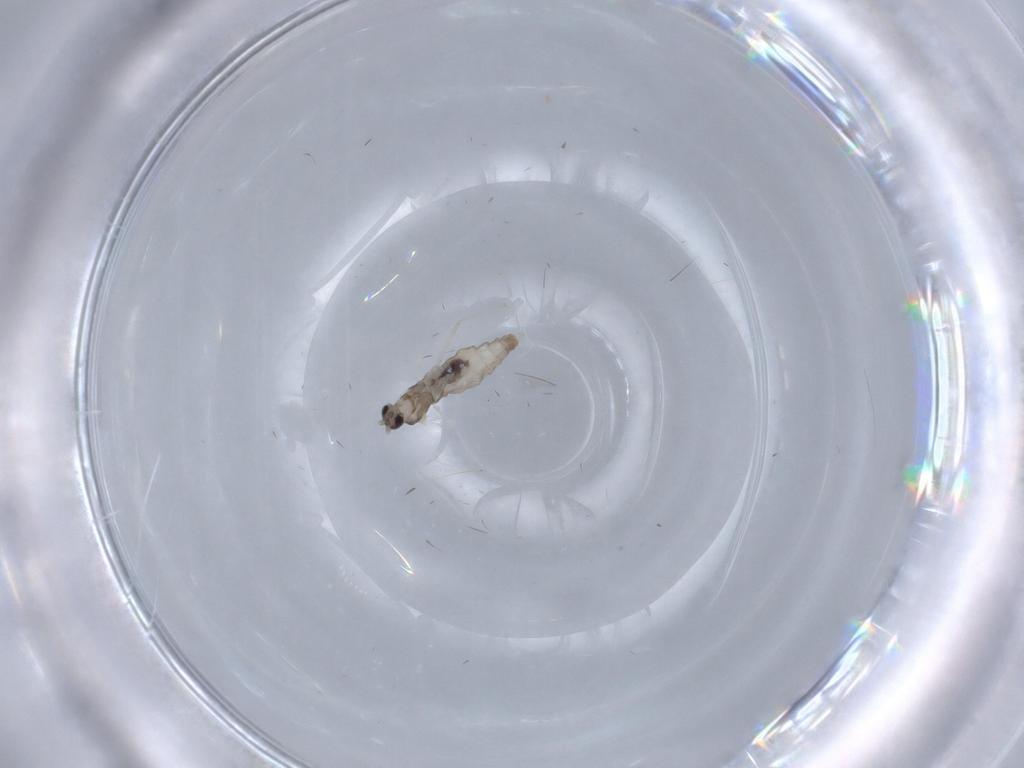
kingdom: Animalia
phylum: Arthropoda
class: Insecta
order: Diptera
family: Cecidomyiidae
